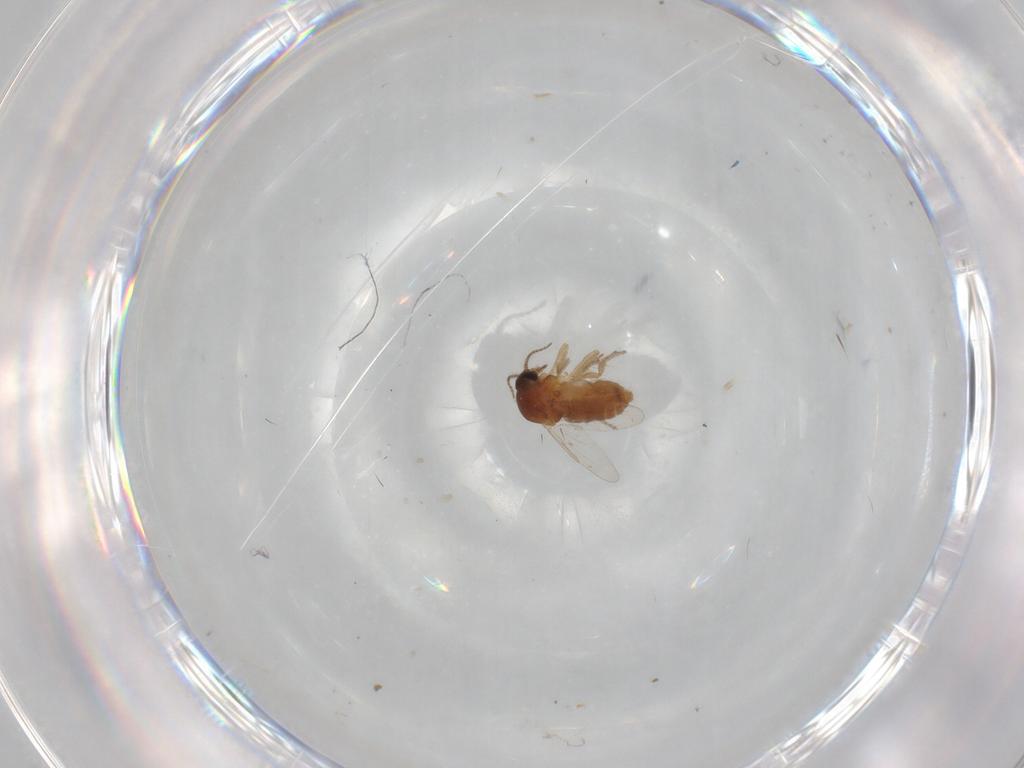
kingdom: Animalia
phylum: Arthropoda
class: Insecta
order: Diptera
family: Ceratopogonidae
